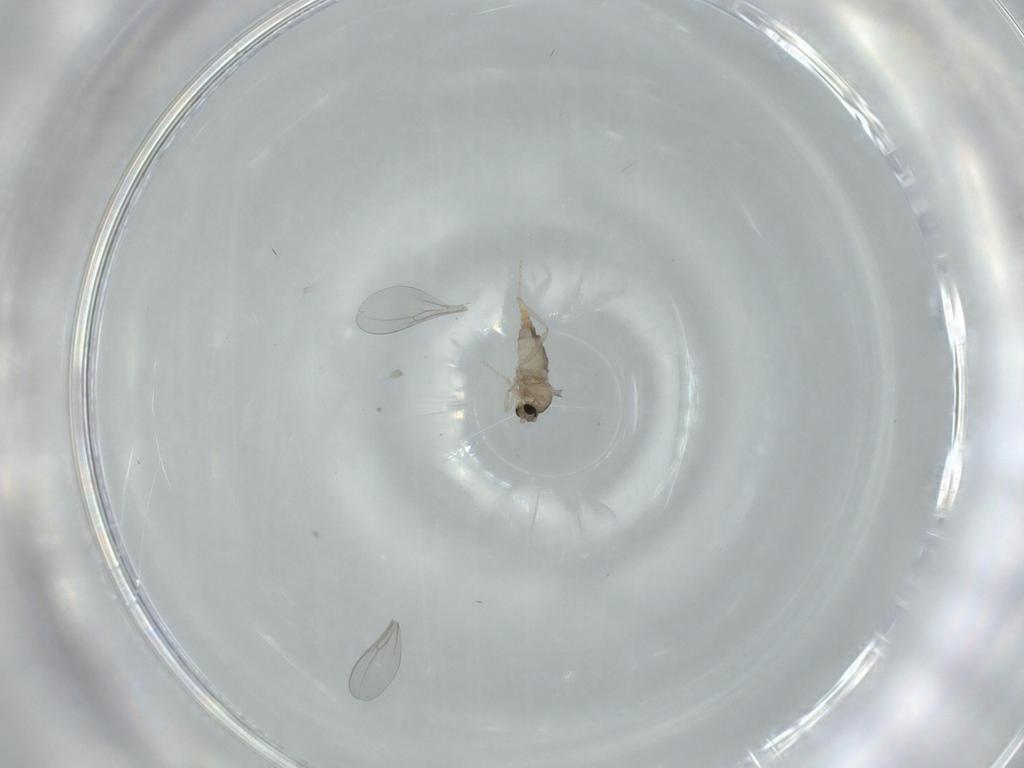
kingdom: Animalia
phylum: Arthropoda
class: Insecta
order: Diptera
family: Cecidomyiidae
